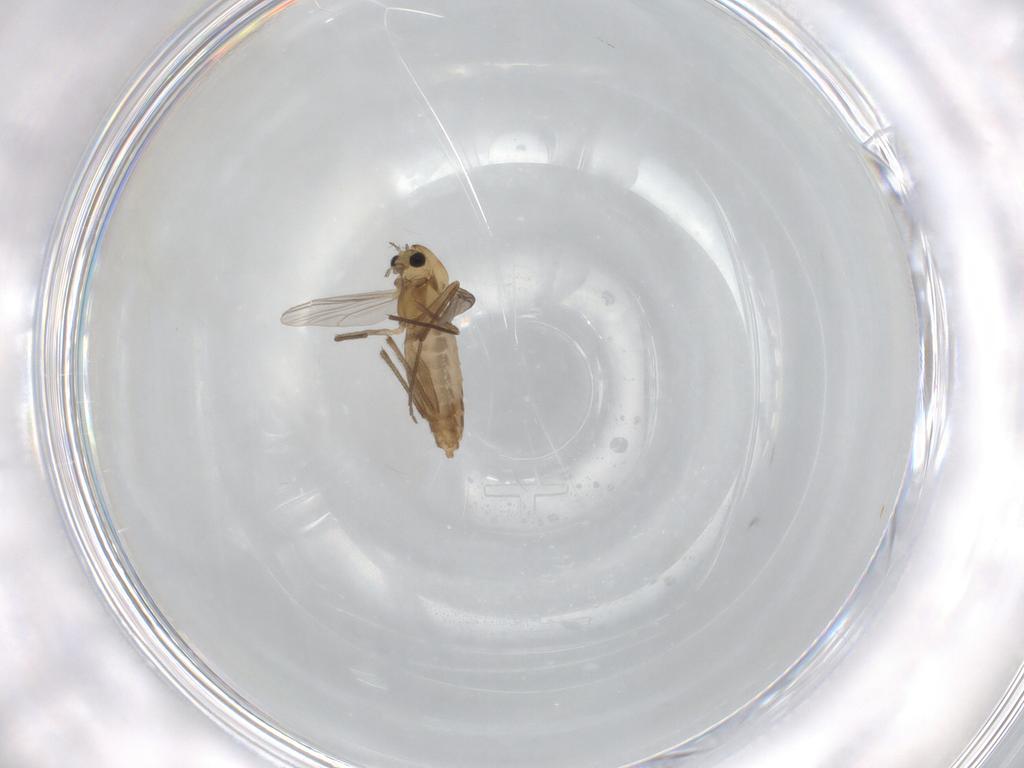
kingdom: Animalia
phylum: Arthropoda
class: Insecta
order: Diptera
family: Chironomidae
